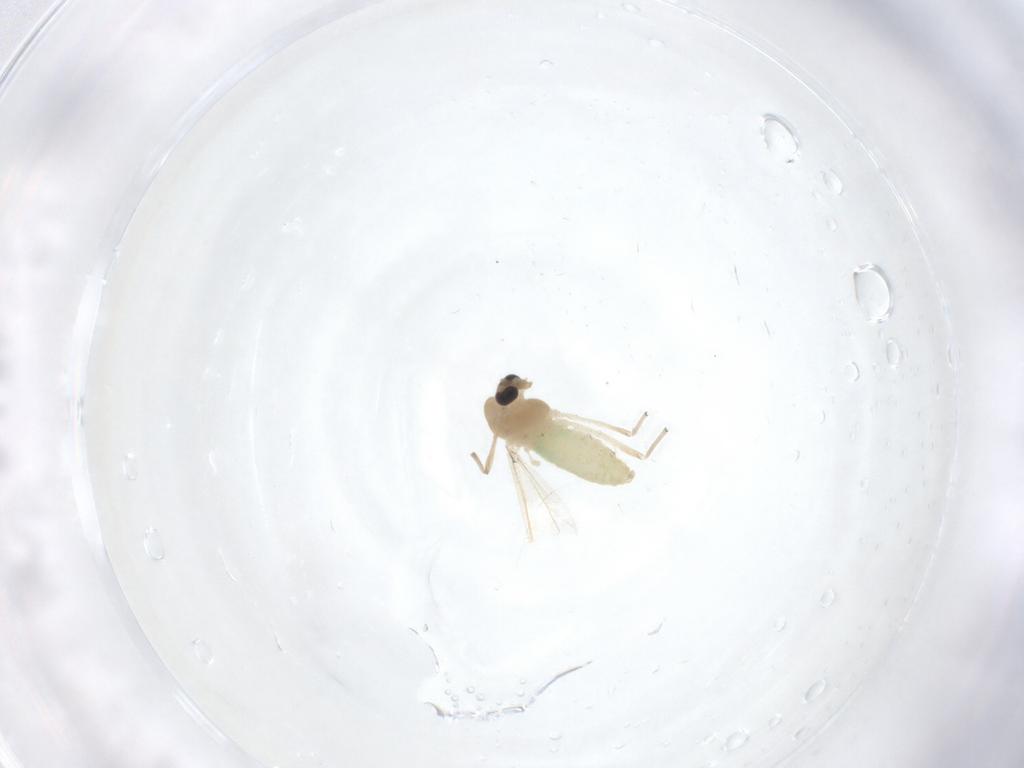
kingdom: Animalia
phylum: Arthropoda
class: Insecta
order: Diptera
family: Chironomidae
